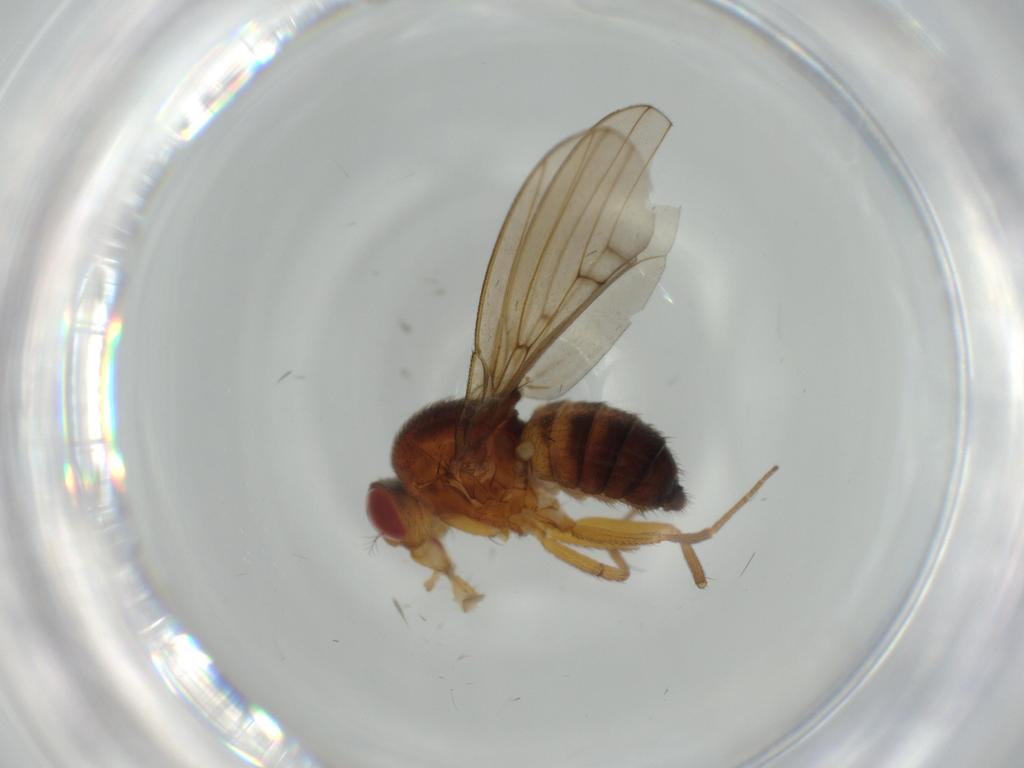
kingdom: Animalia
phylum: Arthropoda
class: Insecta
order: Diptera
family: Drosophilidae
